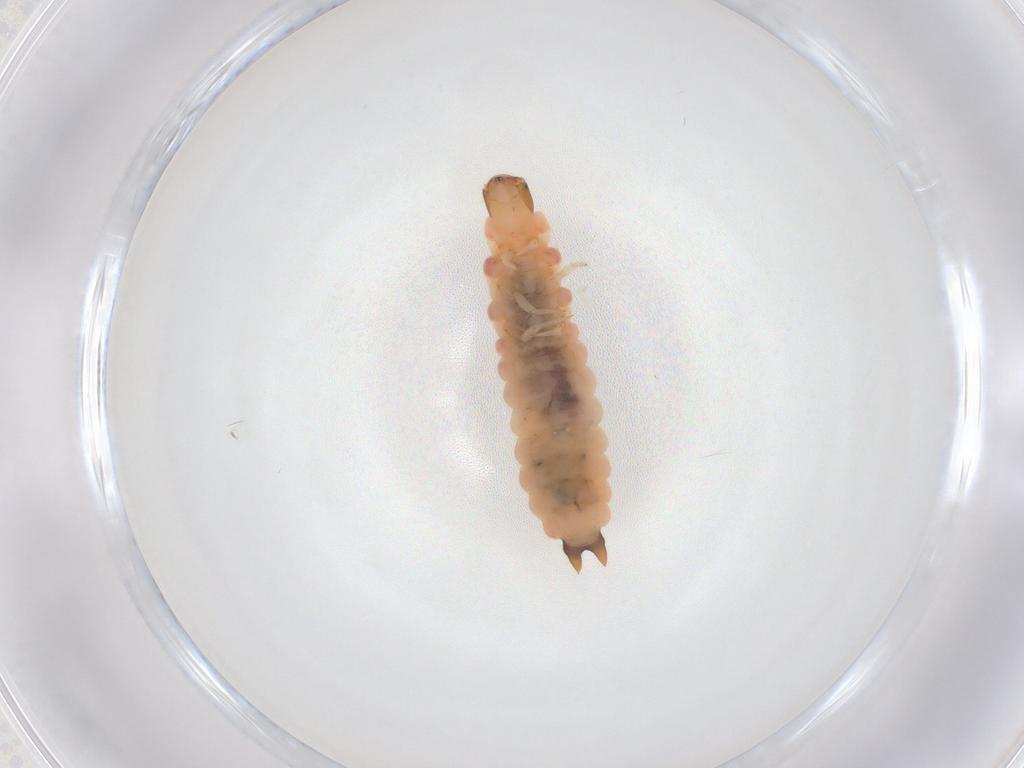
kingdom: Animalia
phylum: Arthropoda
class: Insecta
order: Coleoptera
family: Melyridae
